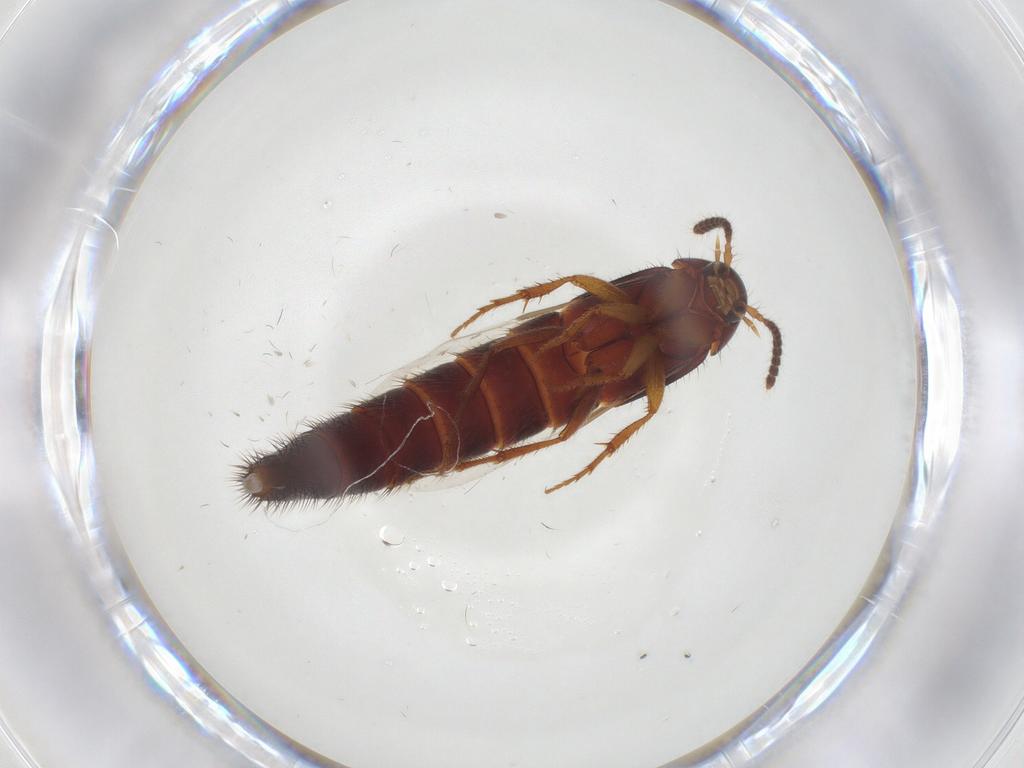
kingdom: Animalia
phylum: Arthropoda
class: Insecta
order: Coleoptera
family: Staphylinidae
